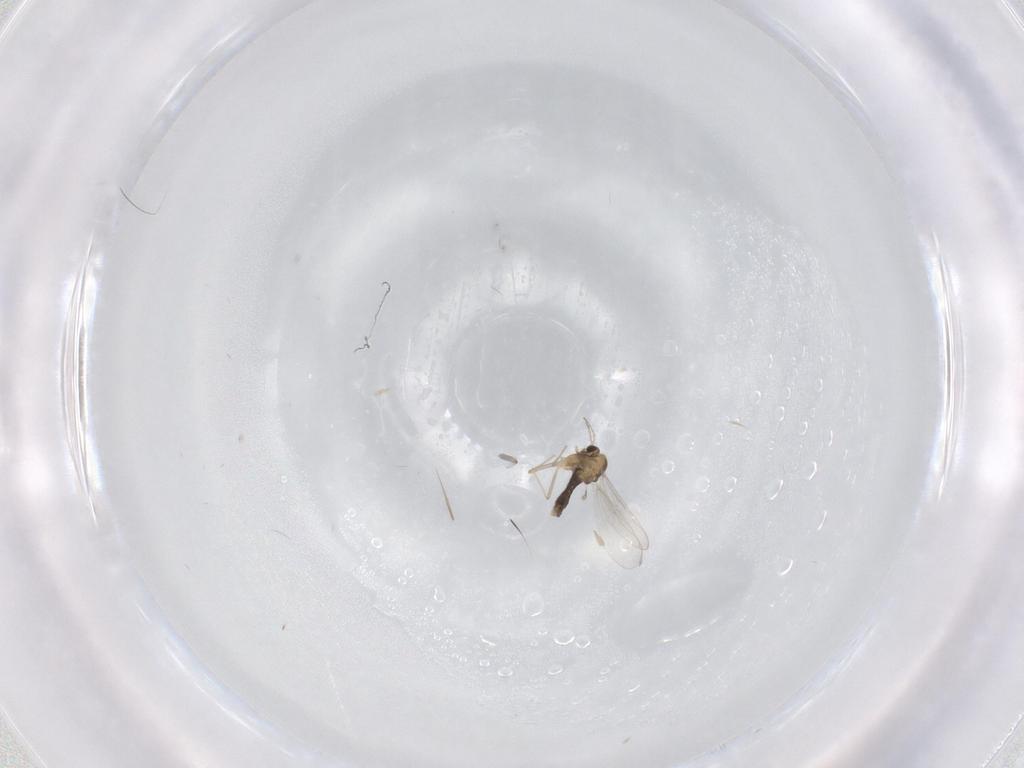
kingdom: Animalia
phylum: Arthropoda
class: Insecta
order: Diptera
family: Chironomidae
